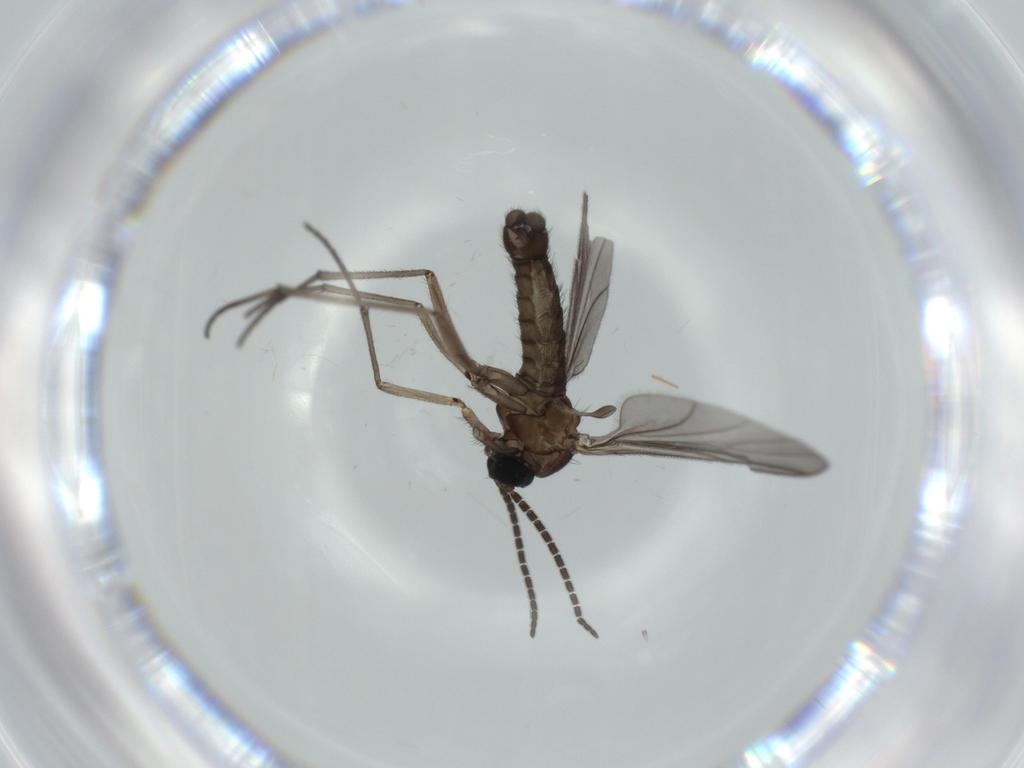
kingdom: Animalia
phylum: Arthropoda
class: Insecta
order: Diptera
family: Sciaridae
